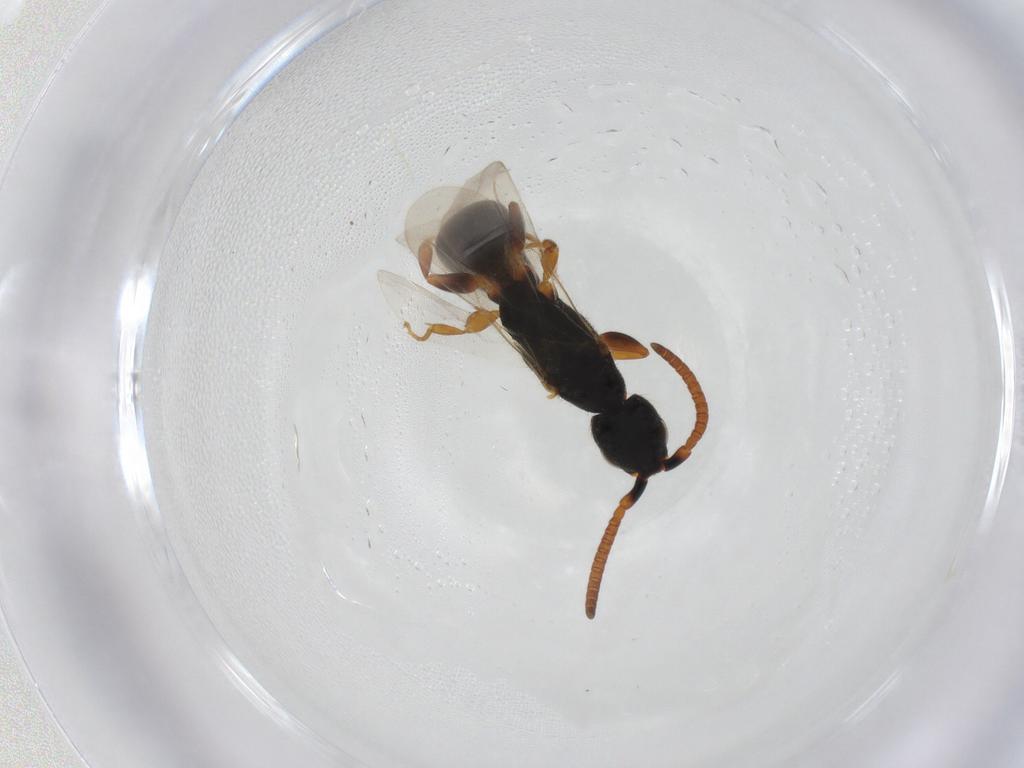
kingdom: Animalia
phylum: Arthropoda
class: Insecta
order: Hymenoptera
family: Bethylidae
